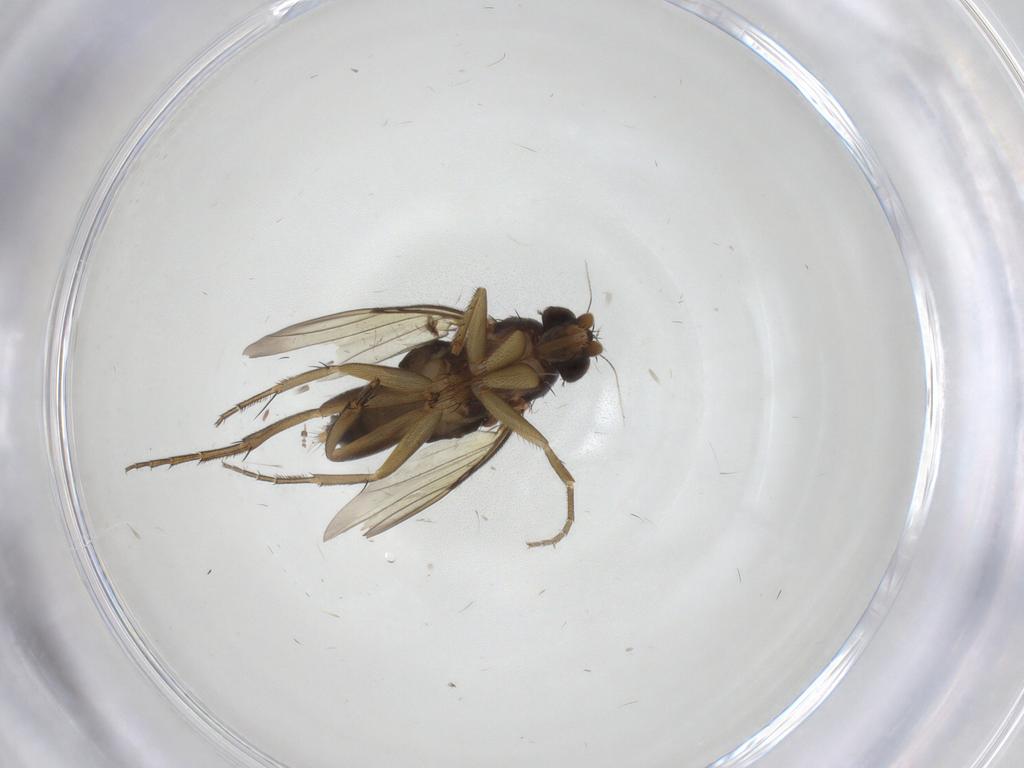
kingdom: Animalia
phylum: Arthropoda
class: Insecta
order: Diptera
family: Phoridae
